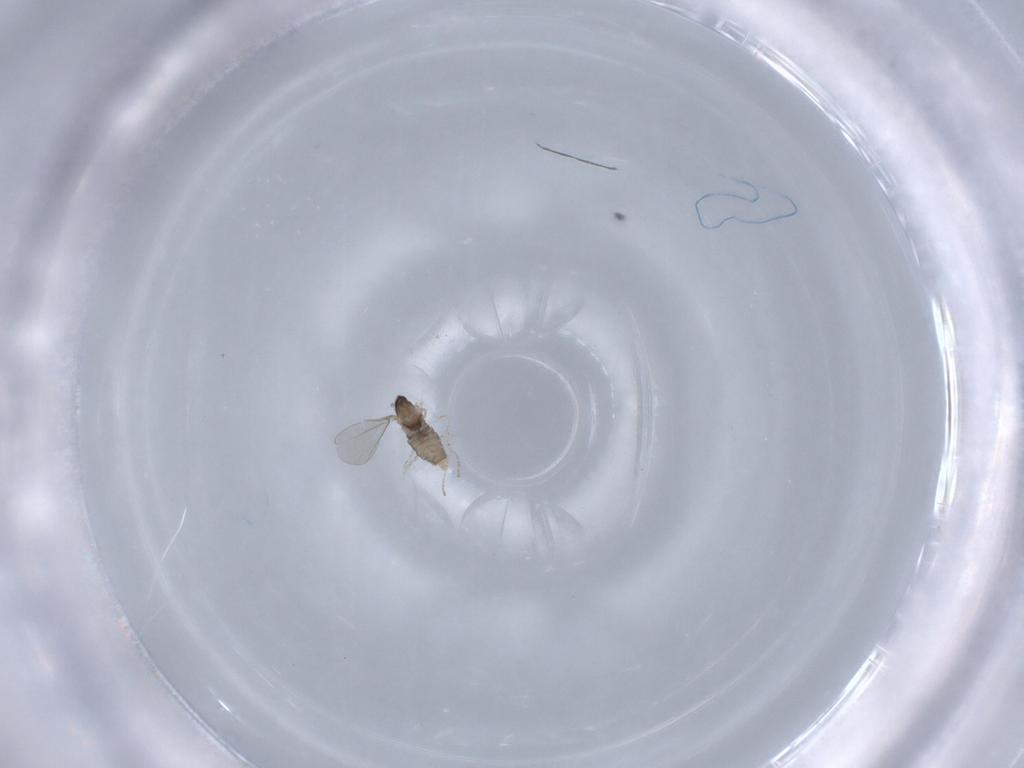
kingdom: Animalia
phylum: Arthropoda
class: Insecta
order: Diptera
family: Cecidomyiidae
